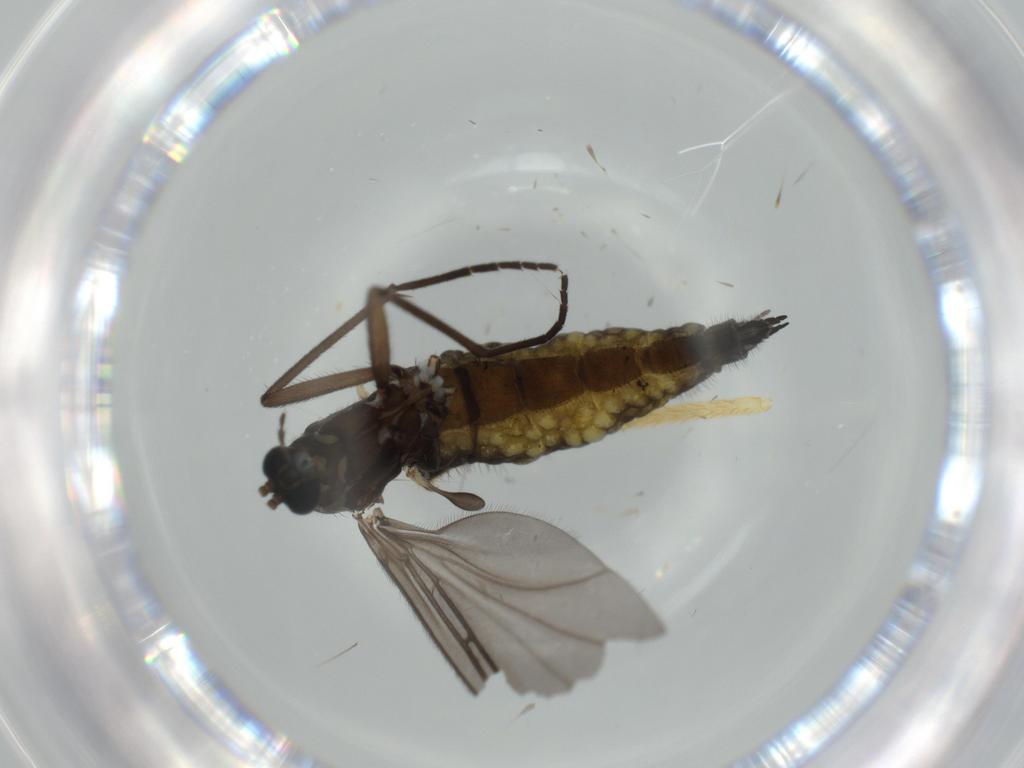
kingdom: Animalia
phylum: Arthropoda
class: Insecta
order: Diptera
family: Sciaridae
